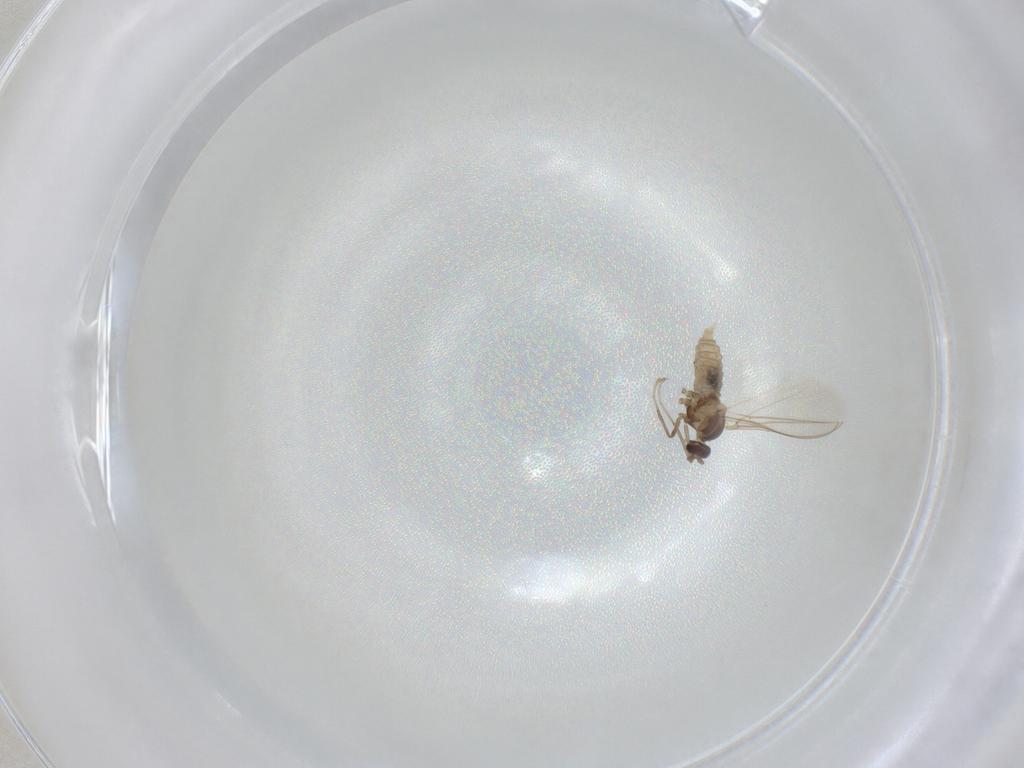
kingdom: Animalia
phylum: Arthropoda
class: Insecta
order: Diptera
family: Cecidomyiidae
